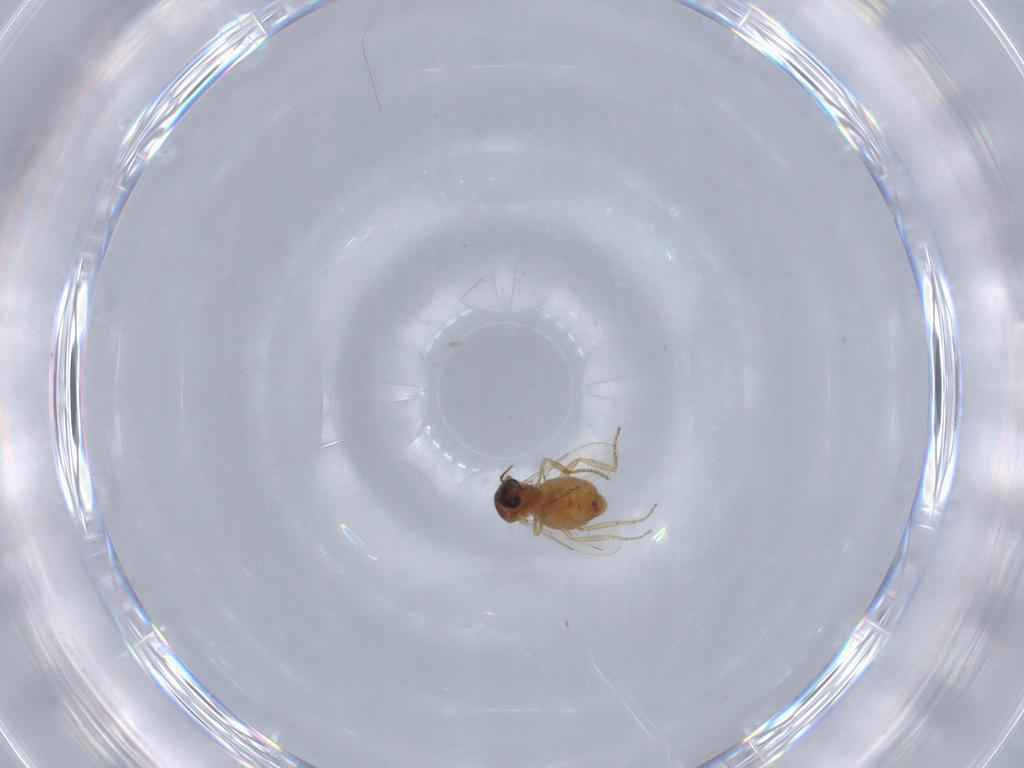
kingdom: Animalia
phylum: Arthropoda
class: Insecta
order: Diptera
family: Ceratopogonidae
